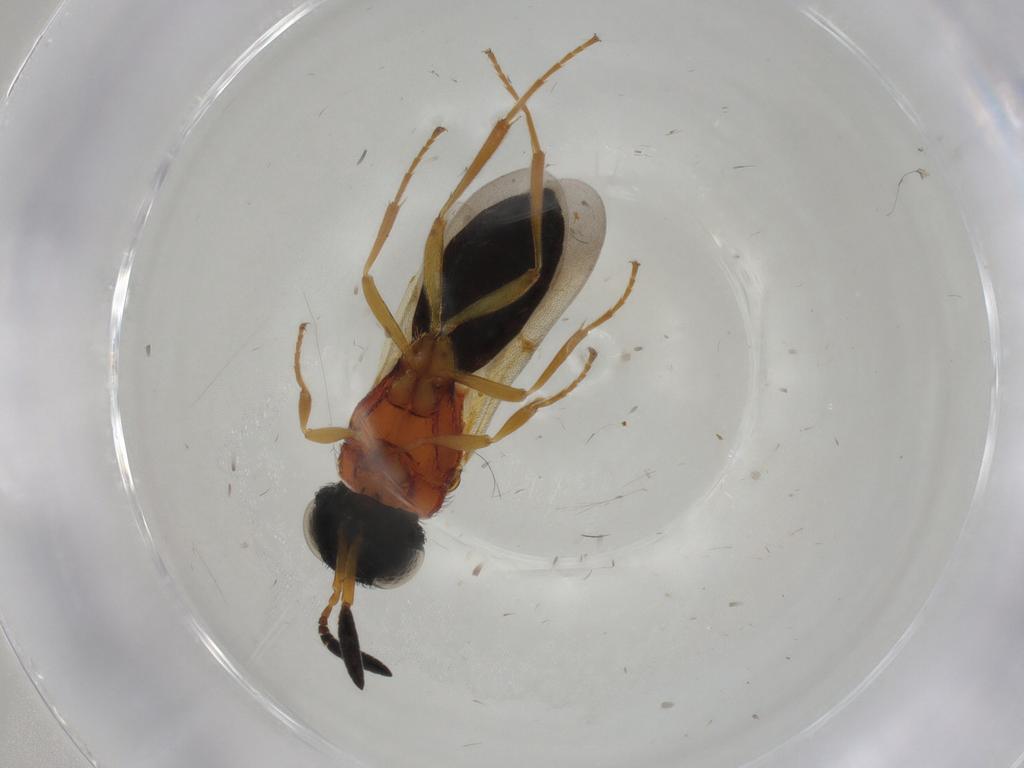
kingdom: Animalia
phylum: Arthropoda
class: Insecta
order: Hymenoptera
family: Formicidae
